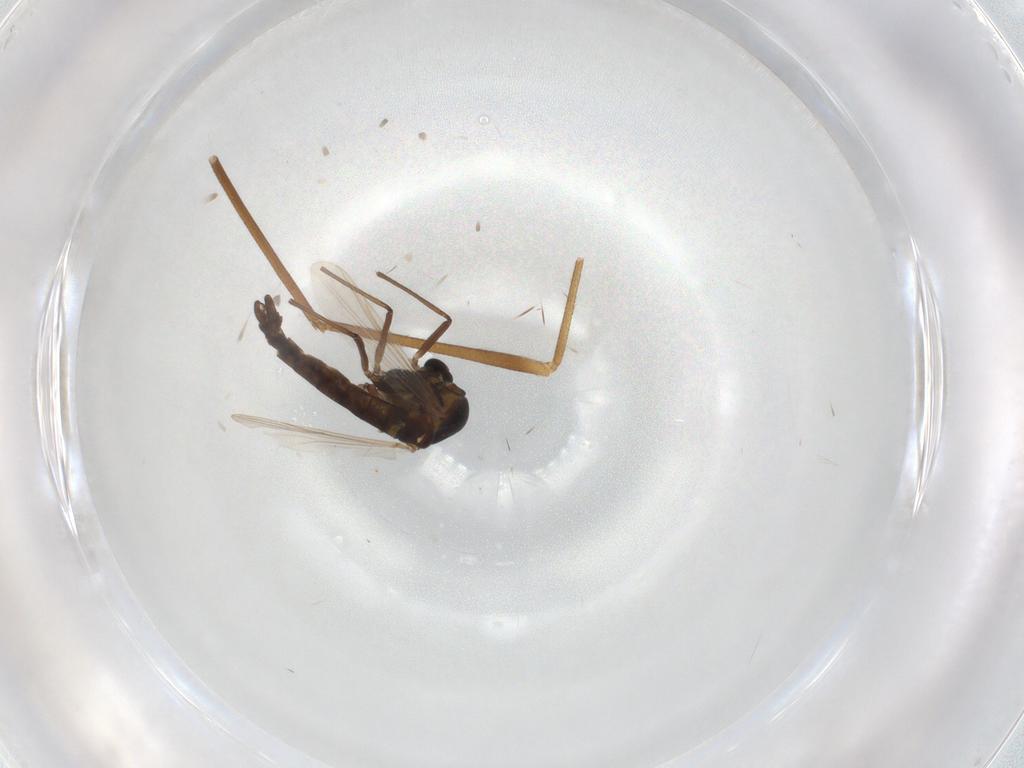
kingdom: Animalia
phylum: Arthropoda
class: Insecta
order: Diptera
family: Chironomidae
